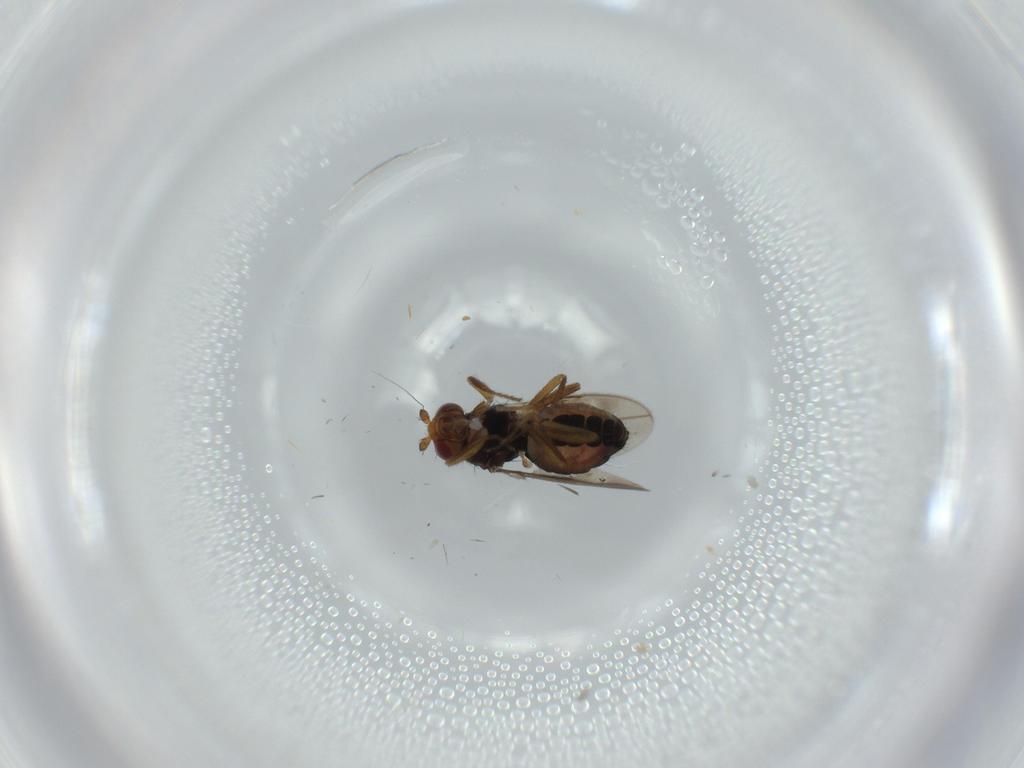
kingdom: Animalia
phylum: Arthropoda
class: Insecta
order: Diptera
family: Sphaeroceridae
